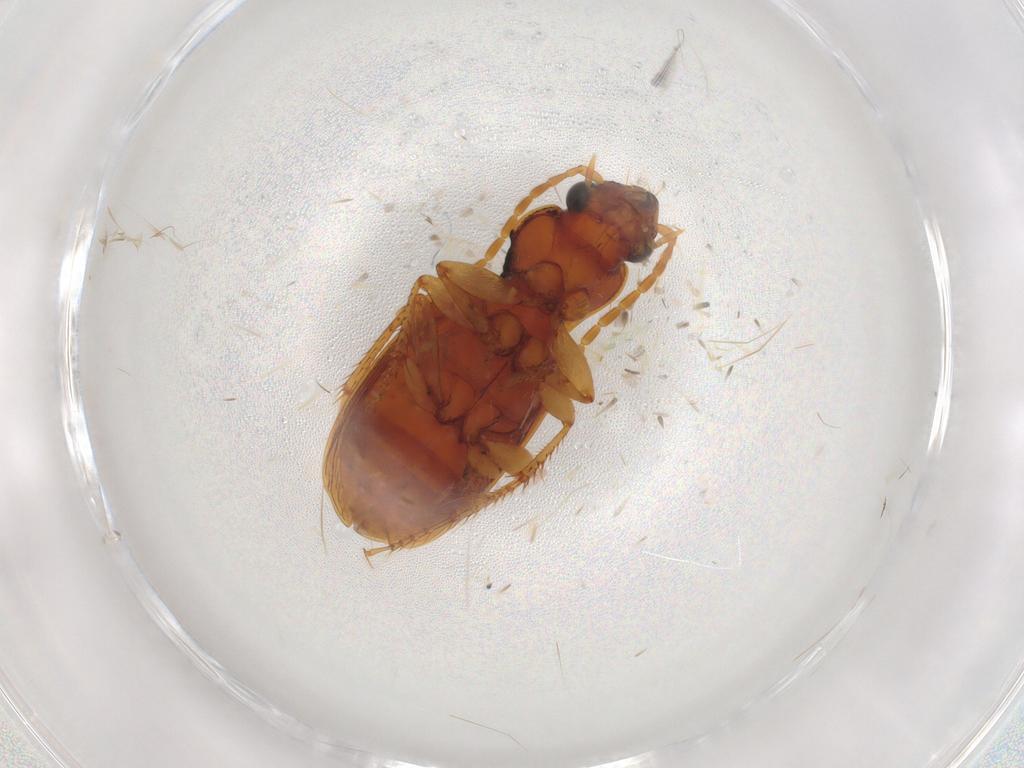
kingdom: Animalia
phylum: Arthropoda
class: Insecta
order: Coleoptera
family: Carabidae
